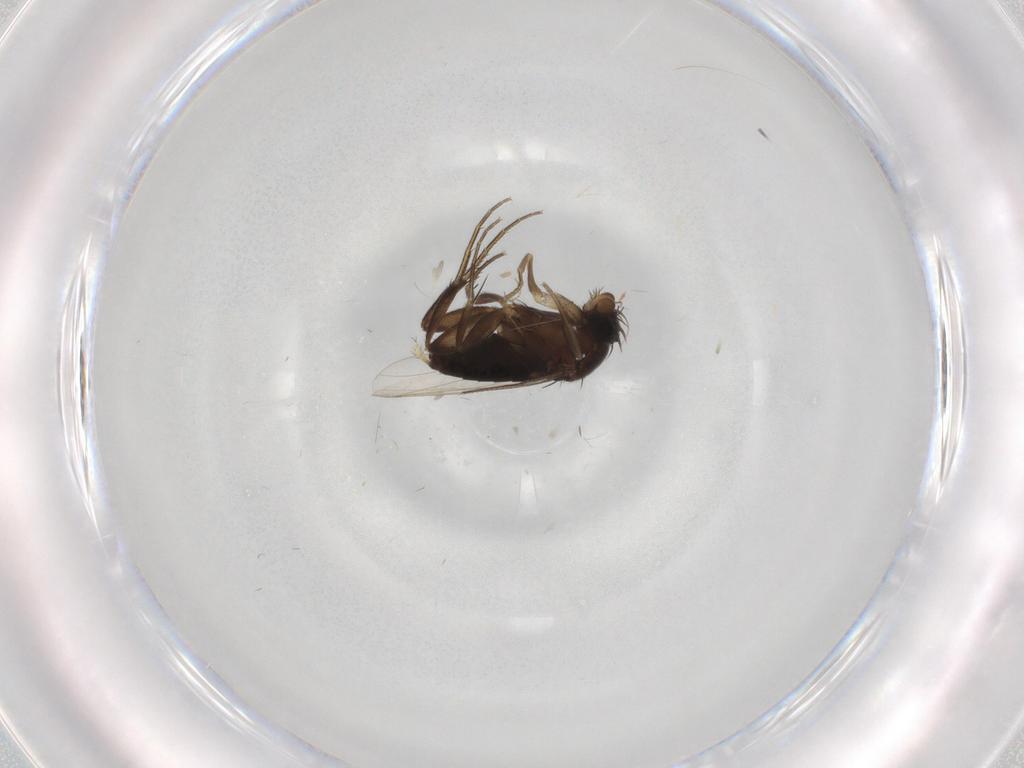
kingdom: Animalia
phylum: Arthropoda
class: Insecta
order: Diptera
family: Phoridae
